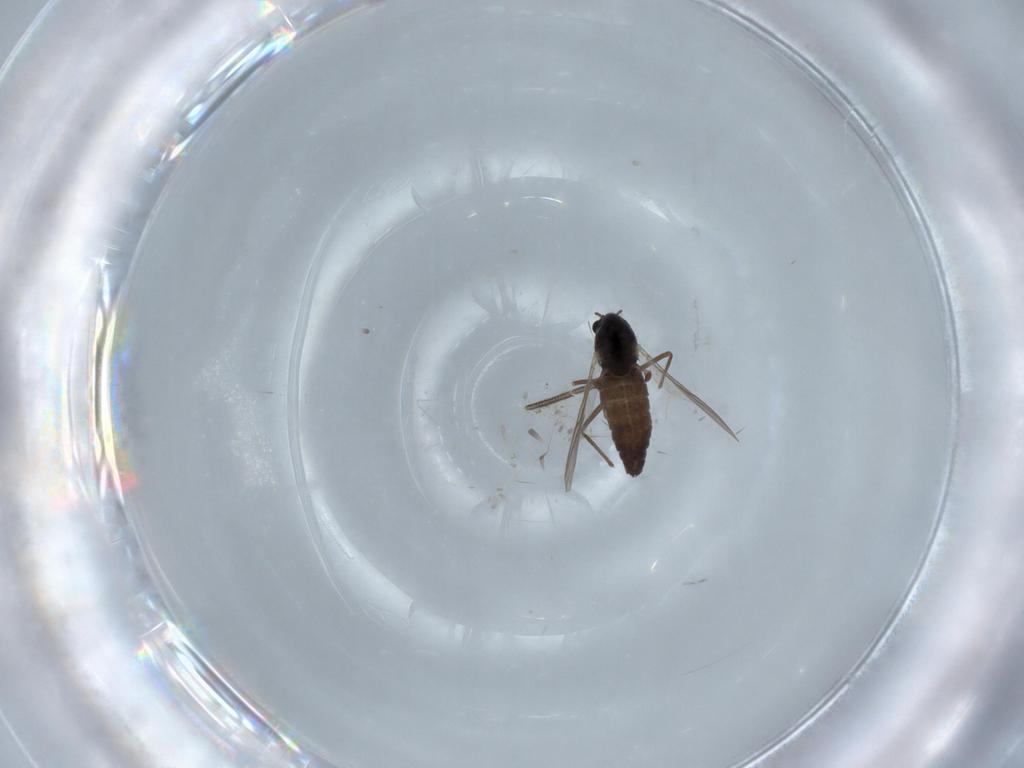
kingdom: Animalia
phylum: Arthropoda
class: Insecta
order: Diptera
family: Chironomidae
